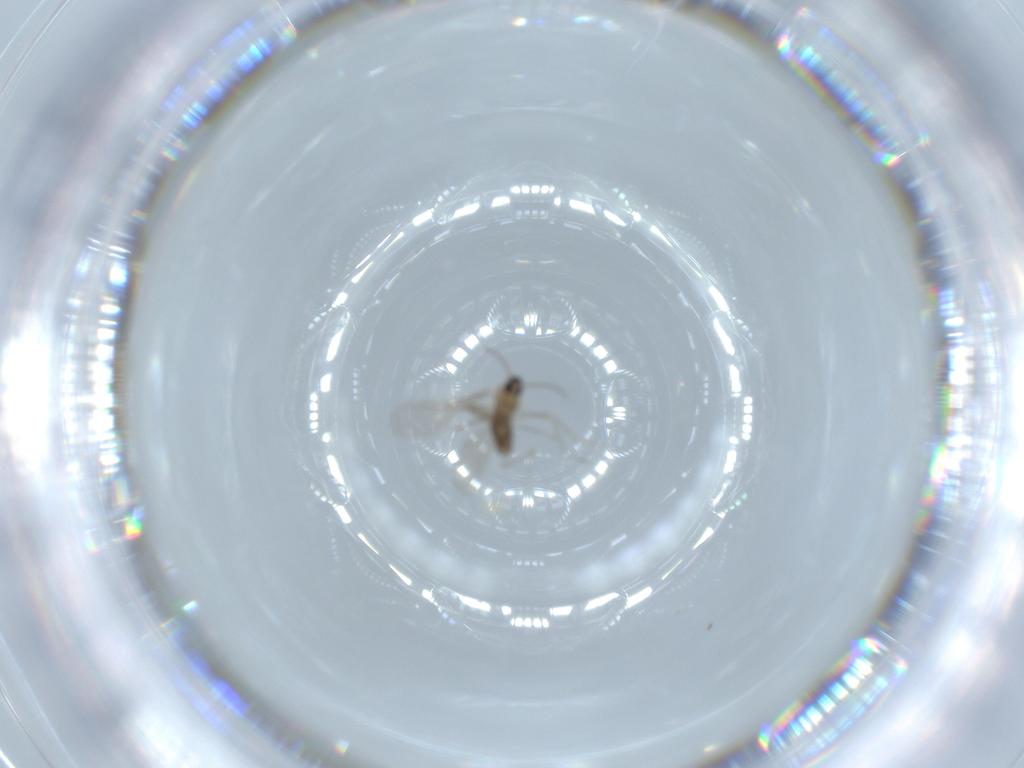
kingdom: Animalia
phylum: Arthropoda
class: Insecta
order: Diptera
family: Cecidomyiidae
